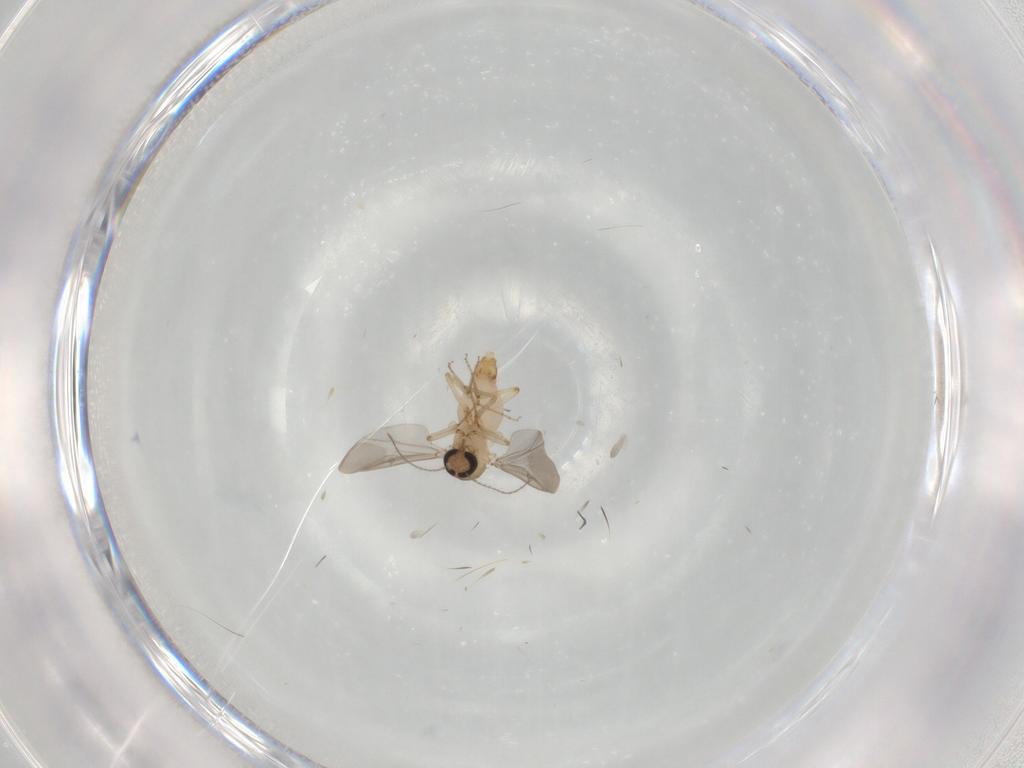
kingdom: Animalia
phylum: Arthropoda
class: Insecta
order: Diptera
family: Ceratopogonidae
